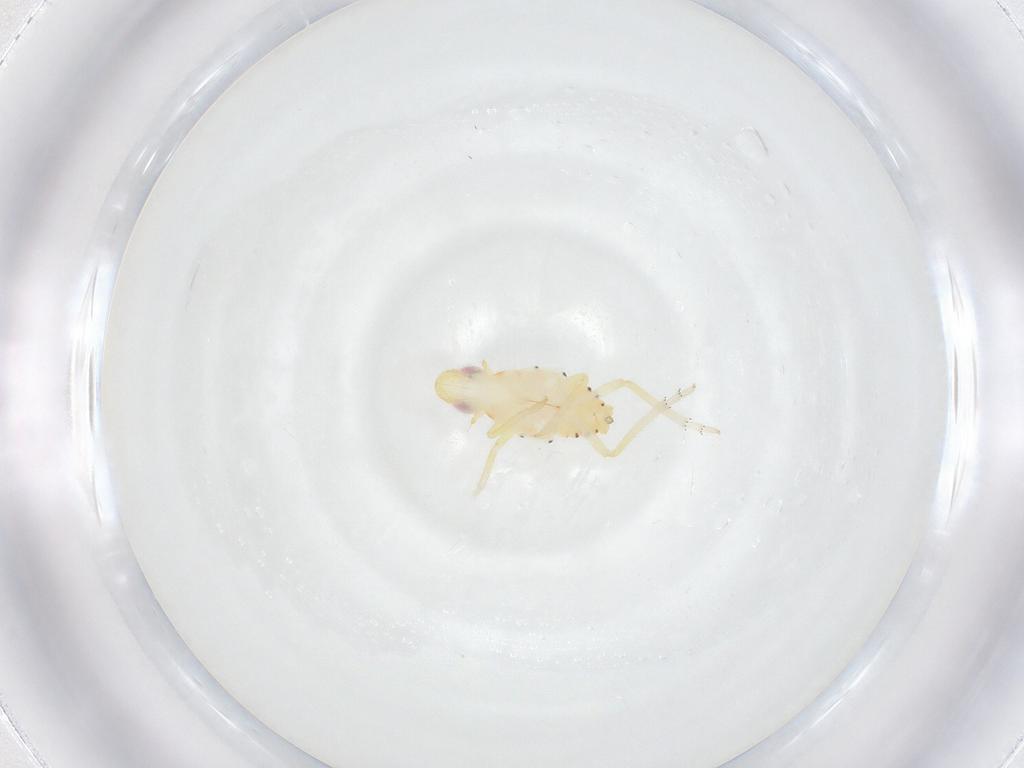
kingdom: Animalia
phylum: Arthropoda
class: Insecta
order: Hemiptera
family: Tropiduchidae
